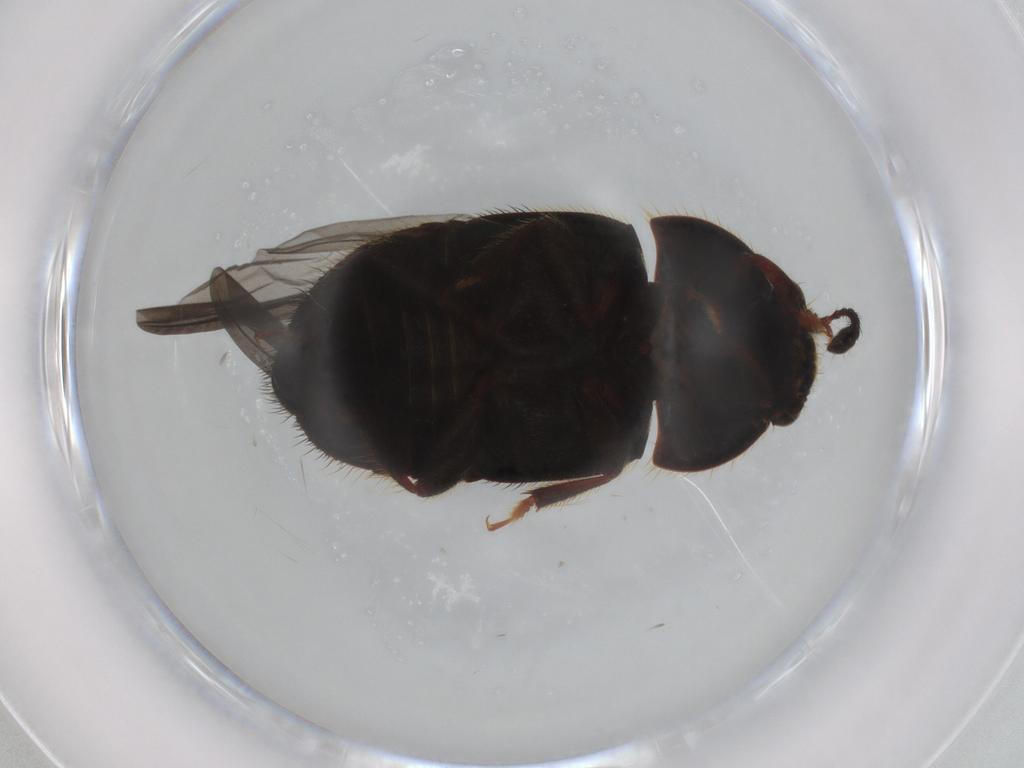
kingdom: Animalia
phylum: Arthropoda
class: Insecta
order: Coleoptera
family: Nitidulidae
